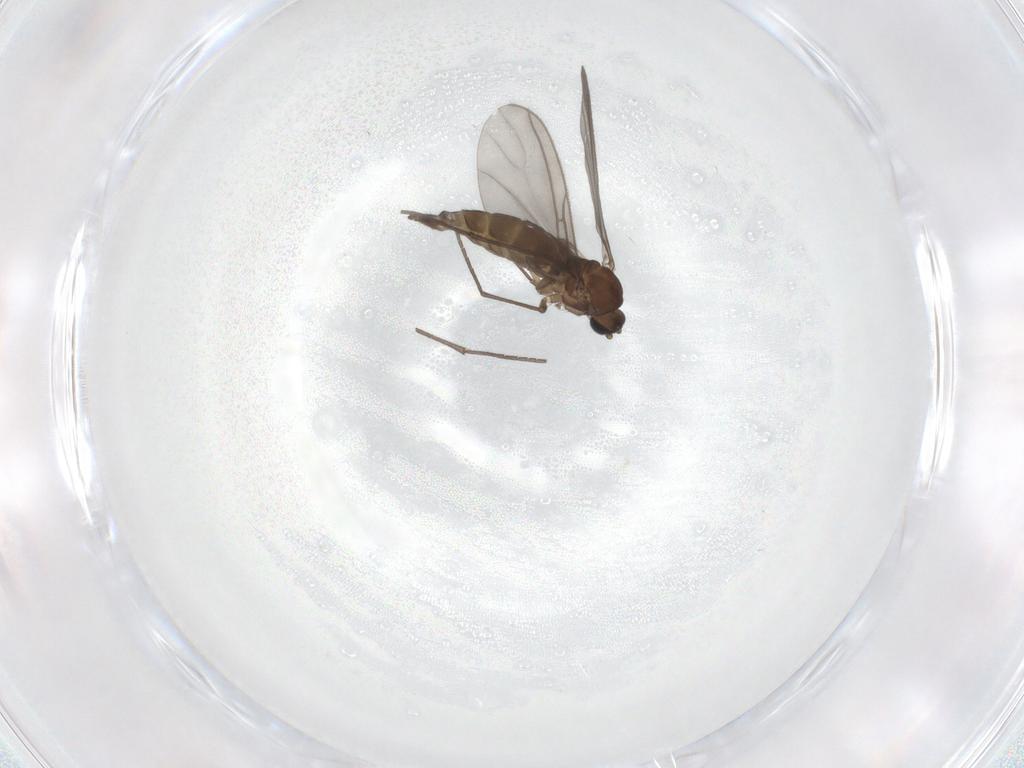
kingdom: Animalia
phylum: Arthropoda
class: Insecta
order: Diptera
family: Sciaridae
